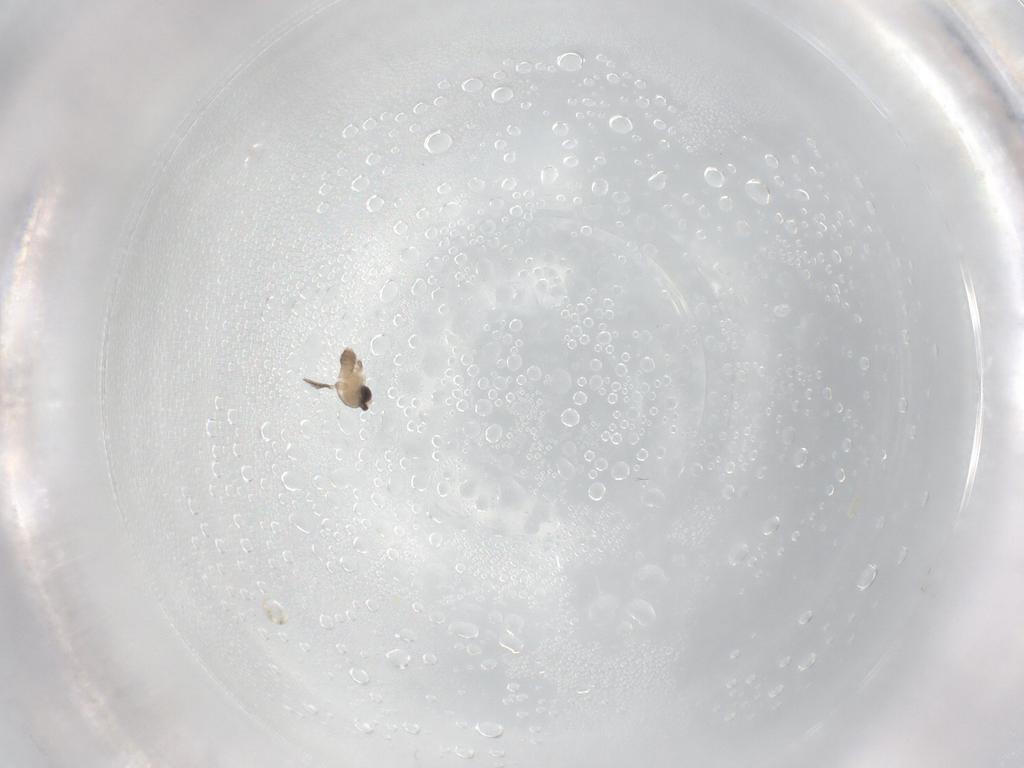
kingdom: Animalia
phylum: Arthropoda
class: Insecta
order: Diptera
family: Cecidomyiidae
